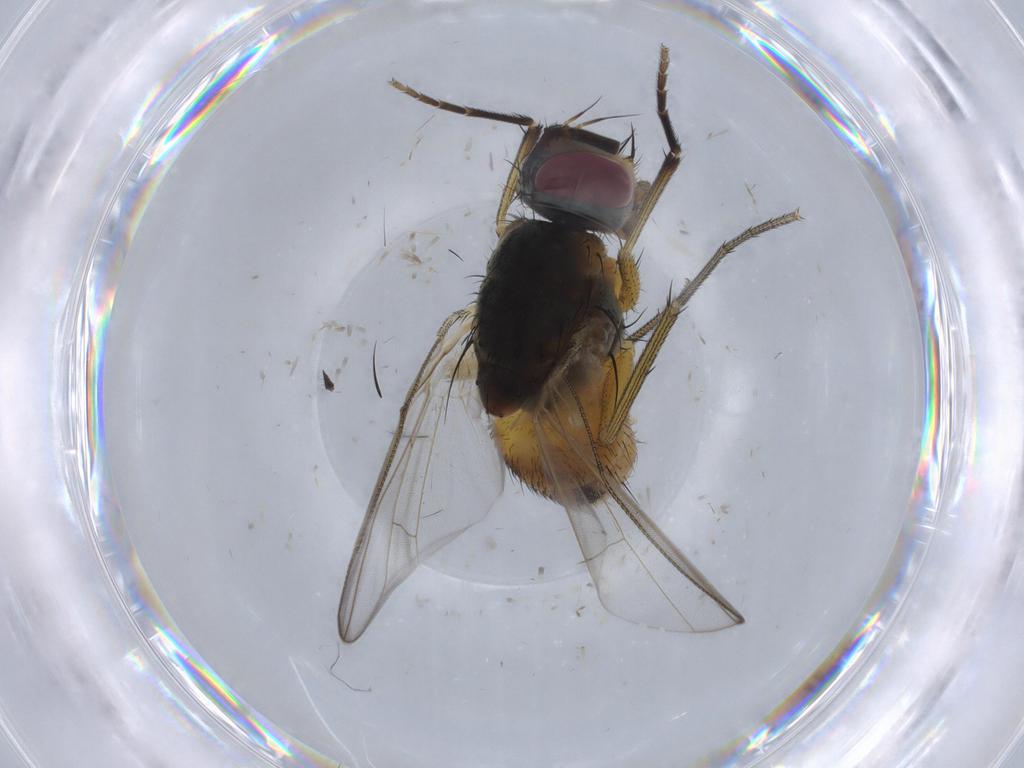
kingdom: Animalia
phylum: Arthropoda
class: Insecta
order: Diptera
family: Muscidae
